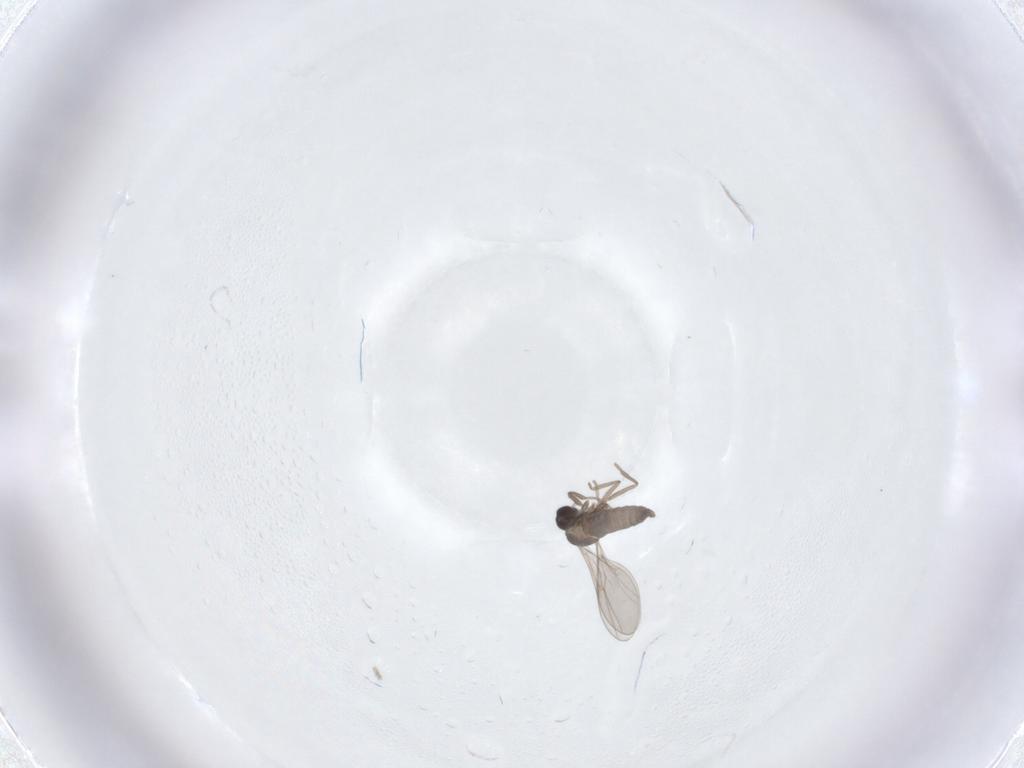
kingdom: Animalia
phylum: Arthropoda
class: Insecta
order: Diptera
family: Cecidomyiidae
